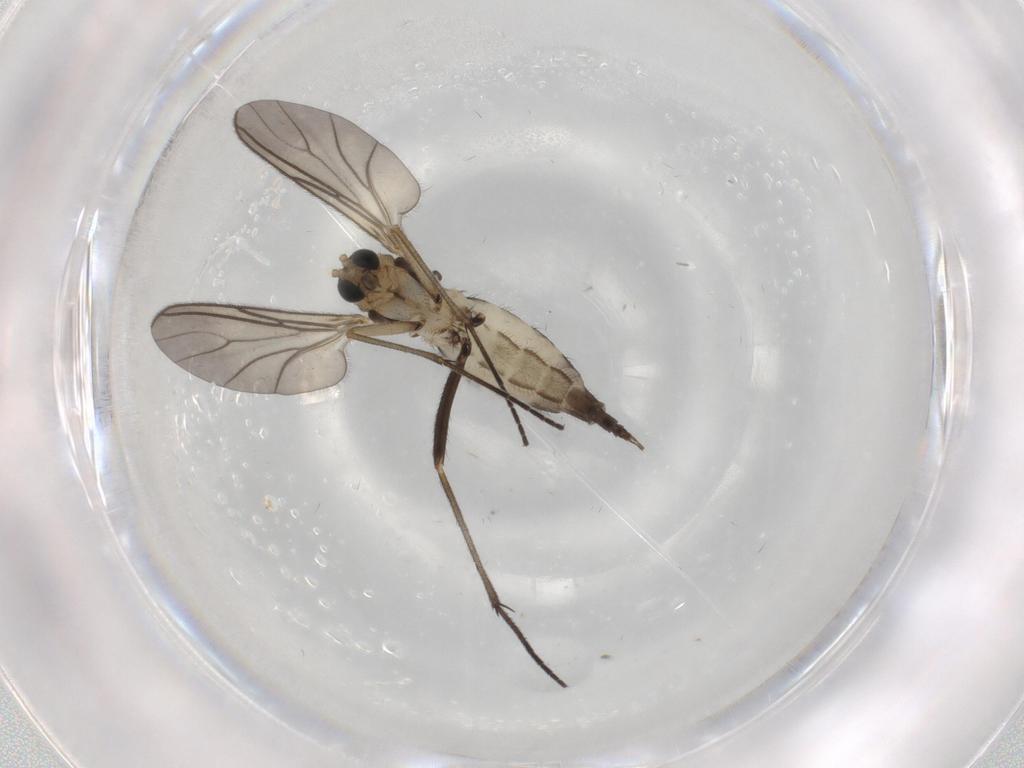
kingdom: Animalia
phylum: Arthropoda
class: Insecta
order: Diptera
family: Sciaridae
